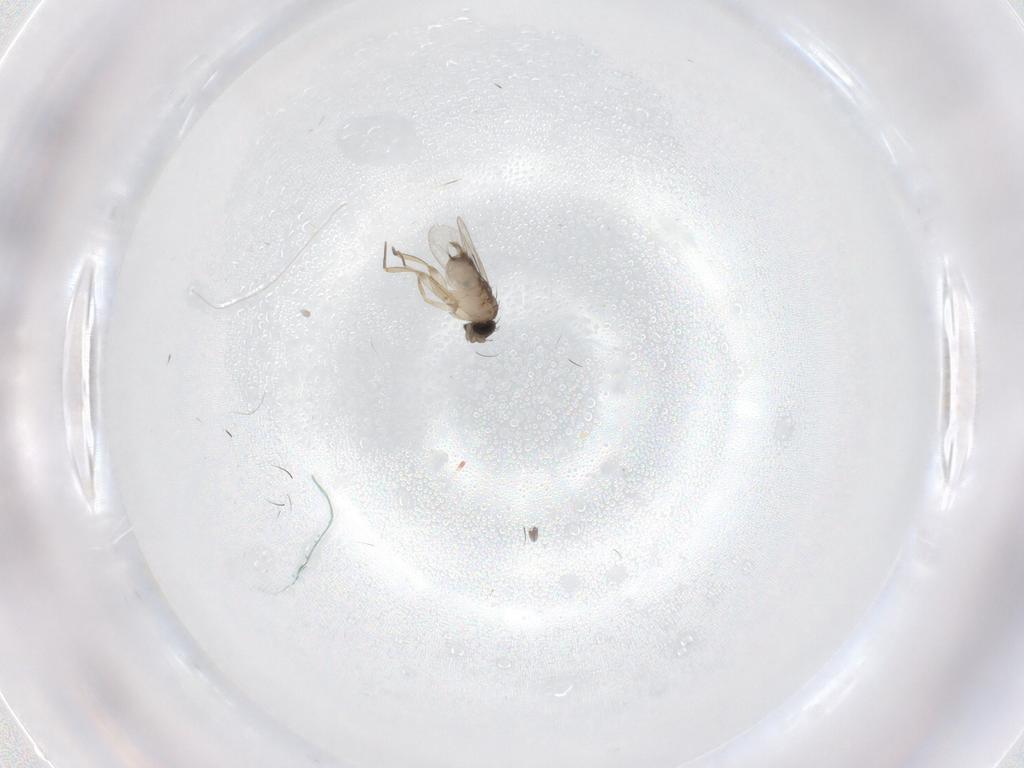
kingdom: Animalia
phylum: Arthropoda
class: Insecta
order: Diptera
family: Phoridae
